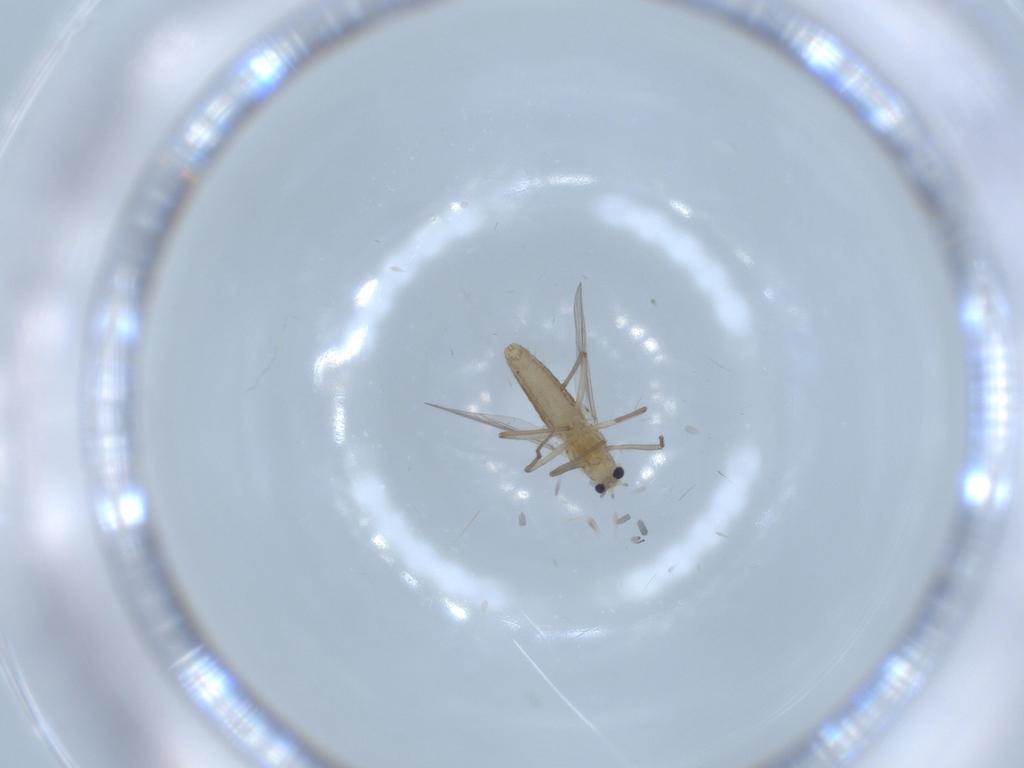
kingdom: Animalia
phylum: Arthropoda
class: Insecta
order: Diptera
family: Chironomidae
